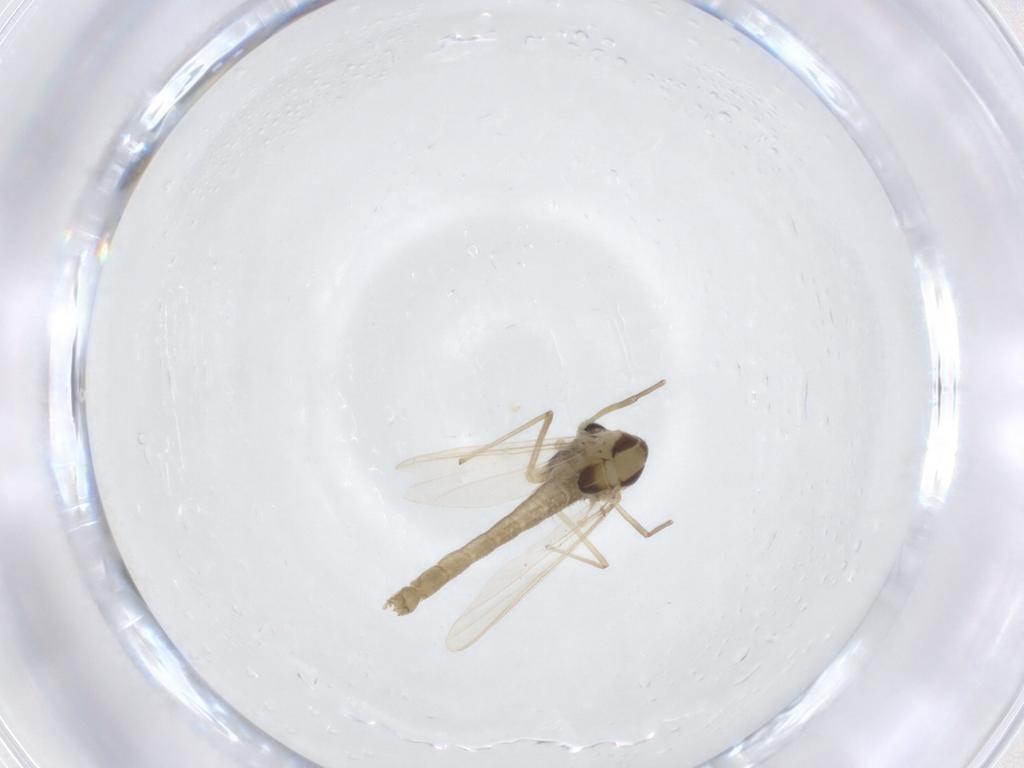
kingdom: Animalia
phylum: Arthropoda
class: Insecta
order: Diptera
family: Chironomidae
